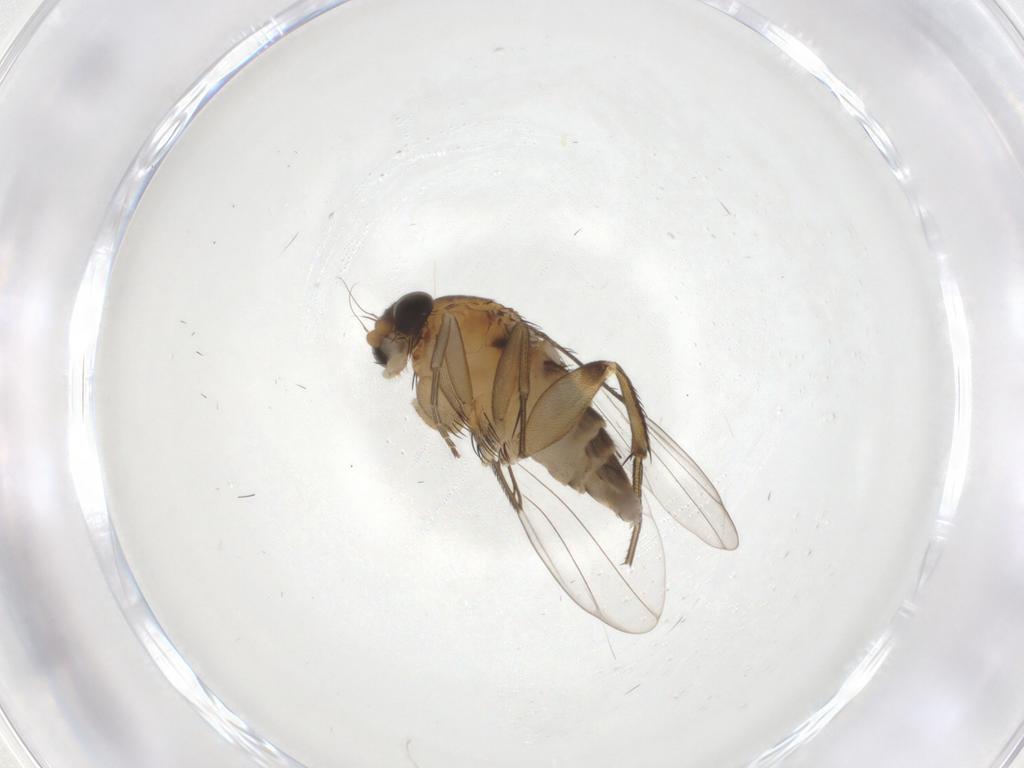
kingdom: Animalia
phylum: Arthropoda
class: Insecta
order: Diptera
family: Phoridae
